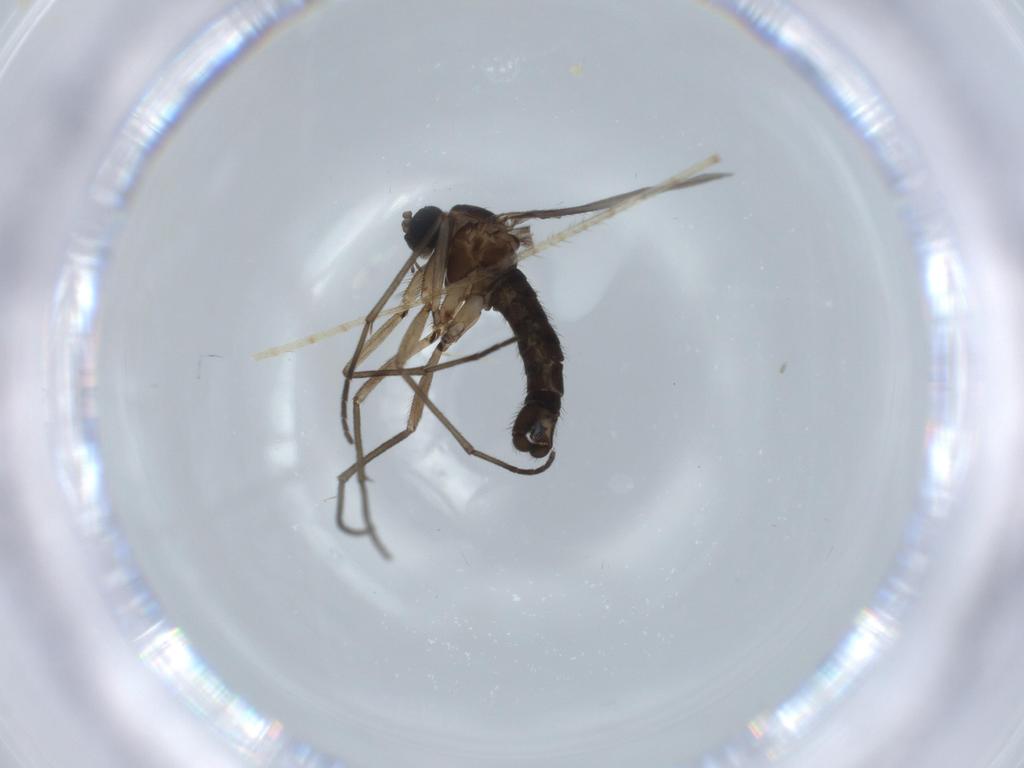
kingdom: Animalia
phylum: Arthropoda
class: Insecta
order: Diptera
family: Sciaridae
